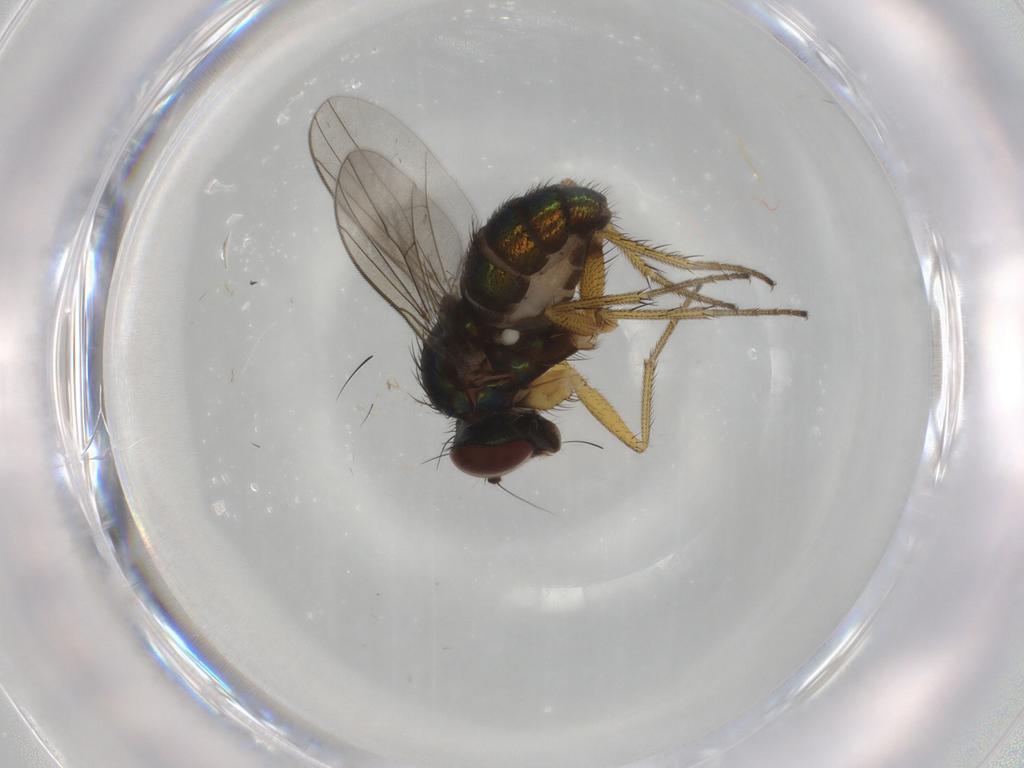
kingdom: Animalia
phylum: Arthropoda
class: Insecta
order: Diptera
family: Dolichopodidae
